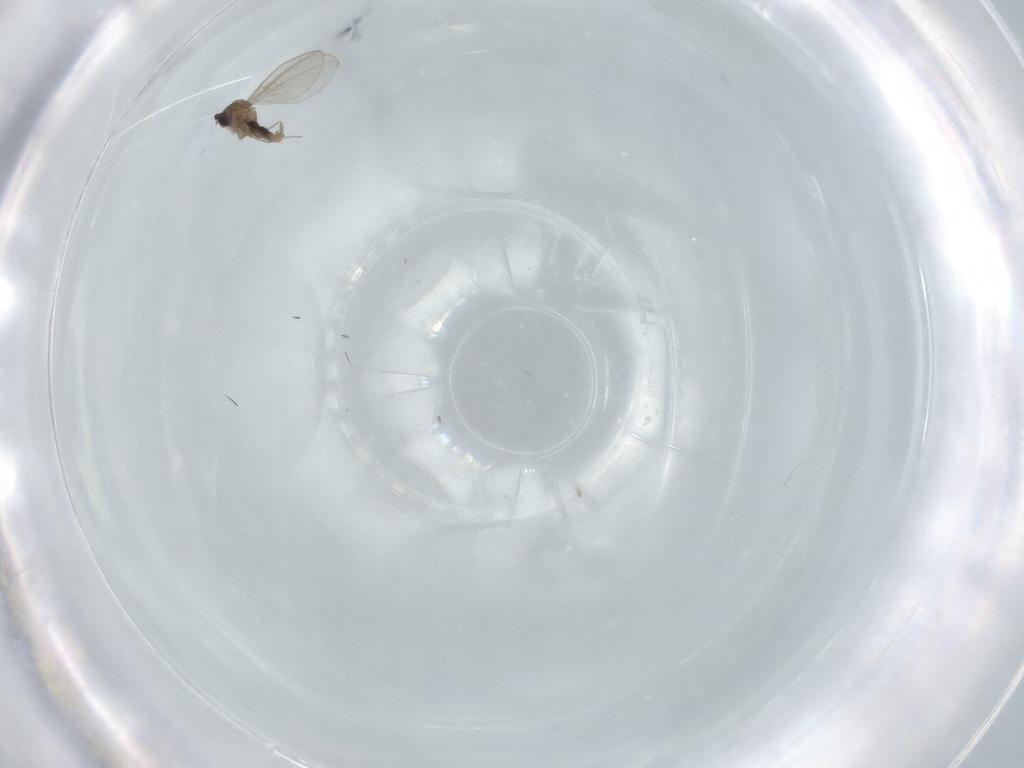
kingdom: Animalia
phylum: Arthropoda
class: Insecta
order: Diptera
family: Cecidomyiidae
